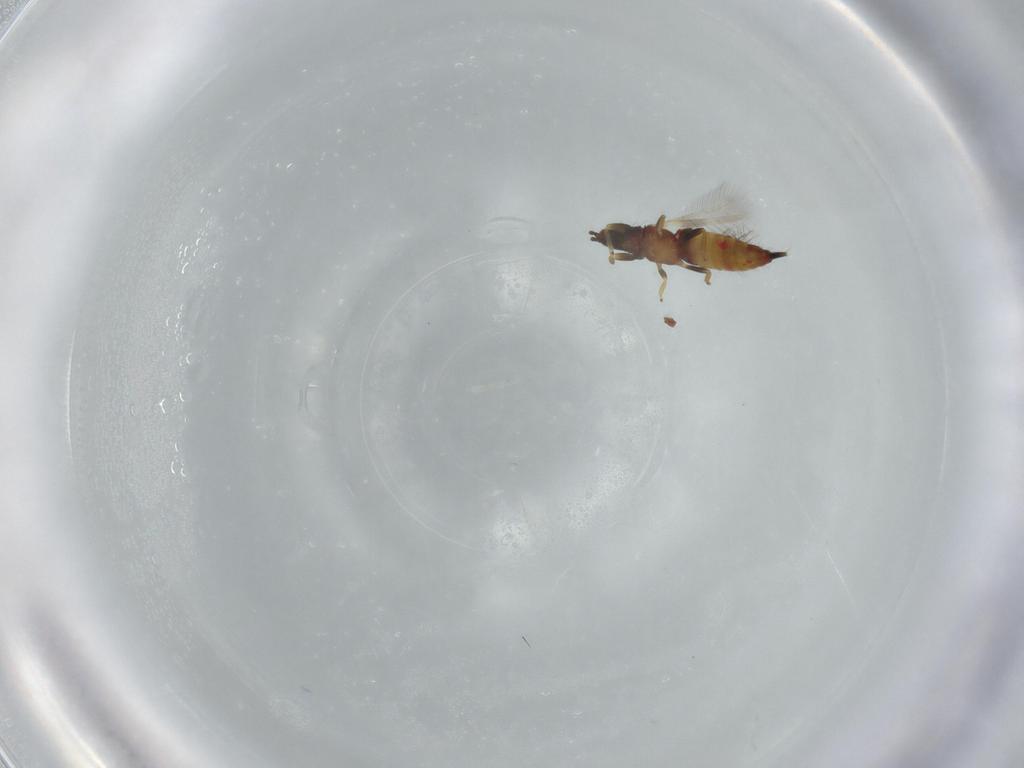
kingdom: Animalia
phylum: Arthropoda
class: Insecta
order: Thysanoptera
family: Phlaeothripidae
